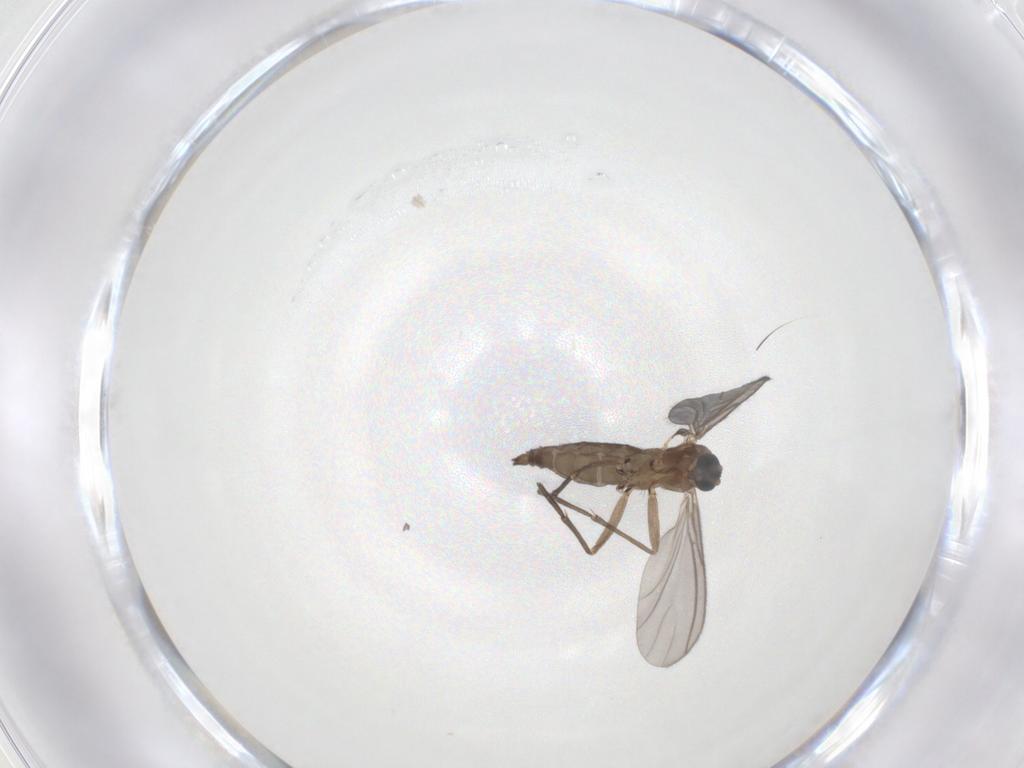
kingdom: Animalia
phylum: Arthropoda
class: Insecta
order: Diptera
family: Sciaridae
